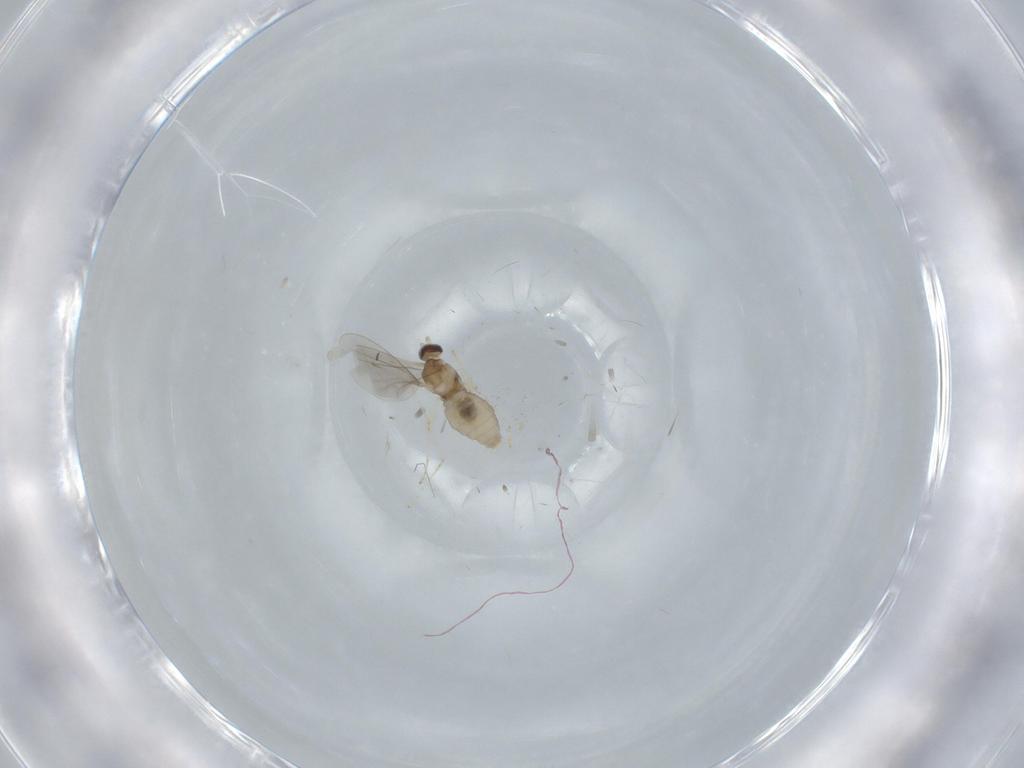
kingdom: Animalia
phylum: Arthropoda
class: Insecta
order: Diptera
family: Cecidomyiidae
